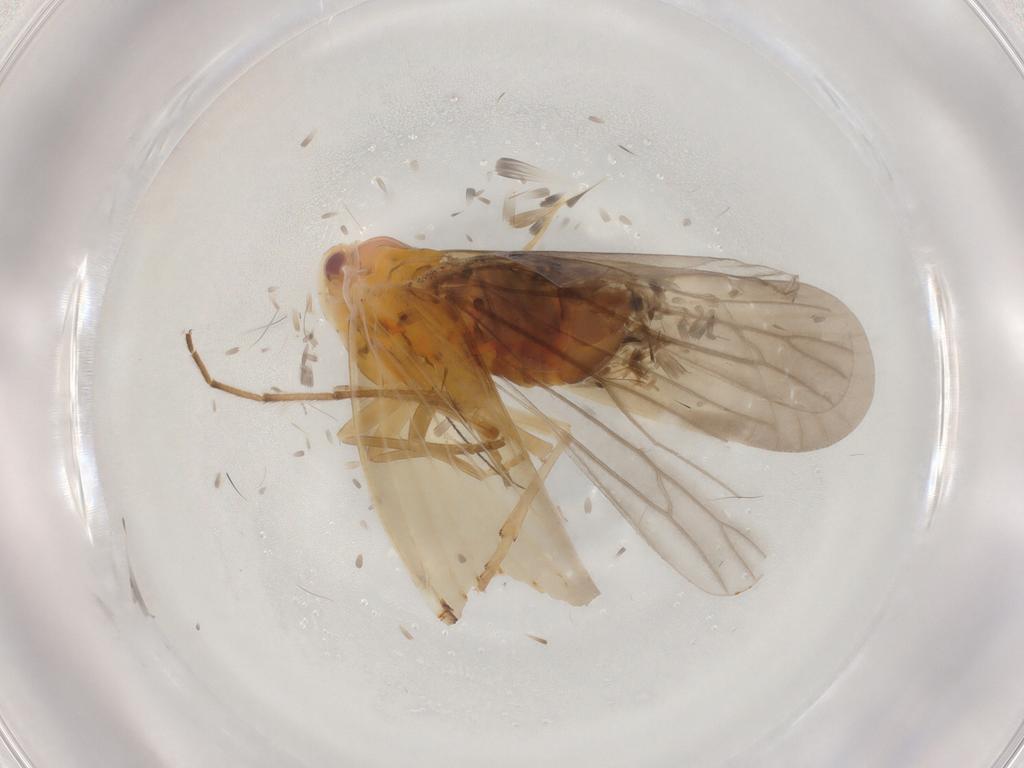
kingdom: Animalia
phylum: Arthropoda
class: Insecta
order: Hemiptera
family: Derbidae
